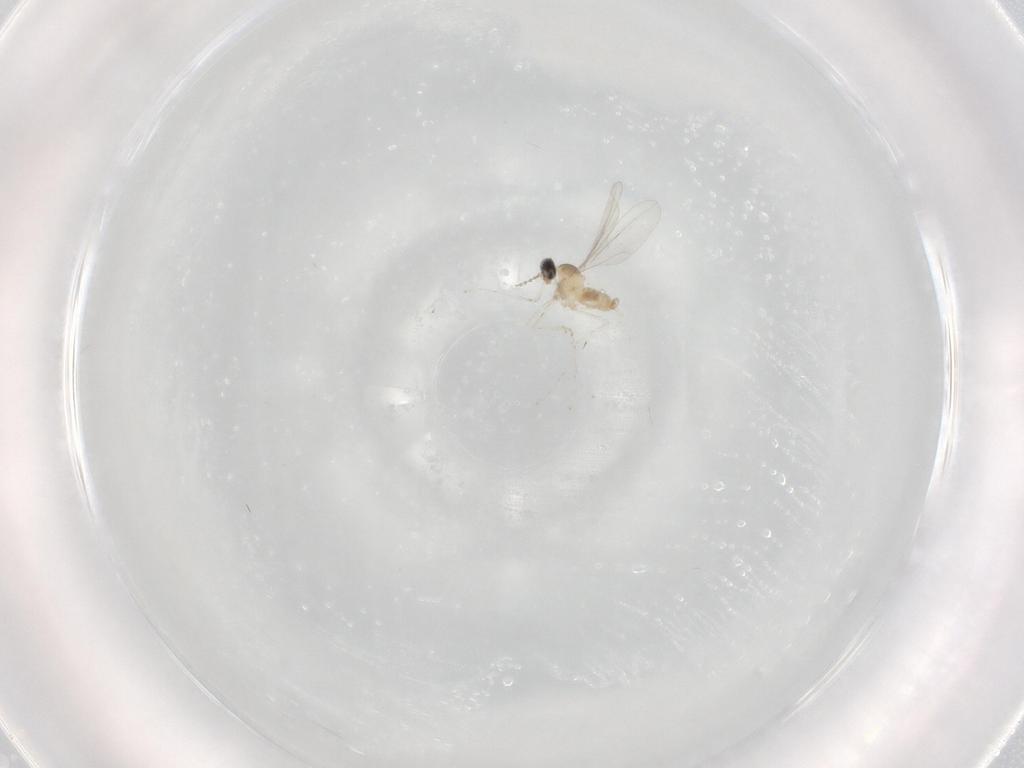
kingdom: Animalia
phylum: Arthropoda
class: Insecta
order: Diptera
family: Cecidomyiidae
